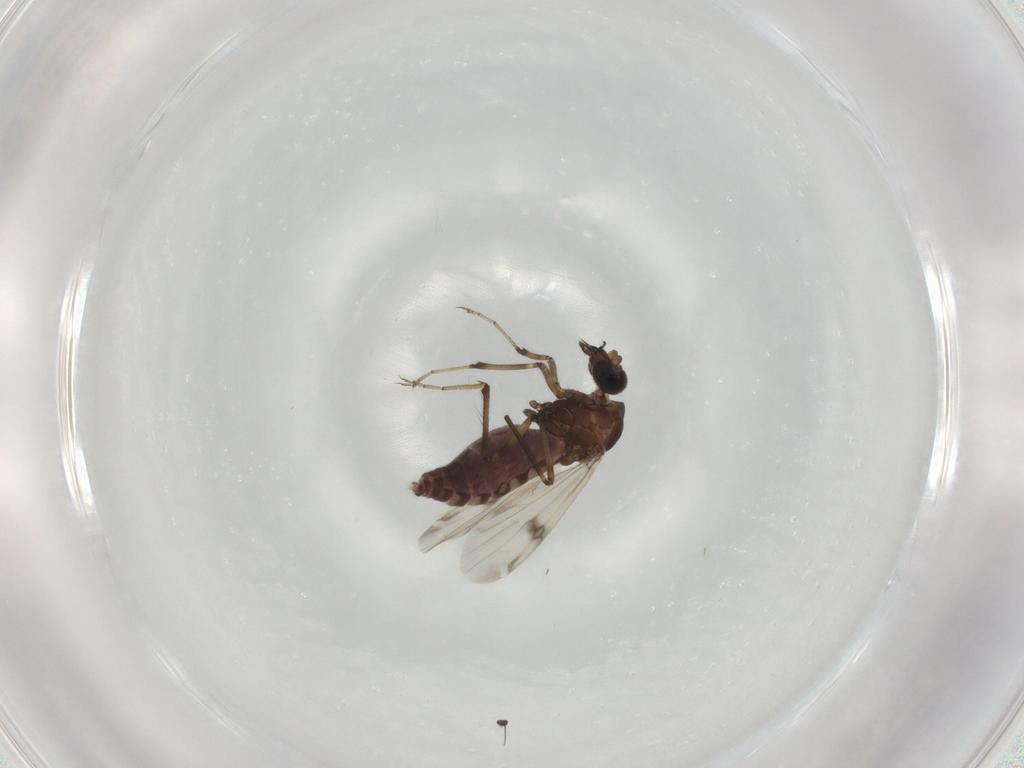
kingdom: Animalia
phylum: Arthropoda
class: Insecta
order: Diptera
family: Ceratopogonidae
